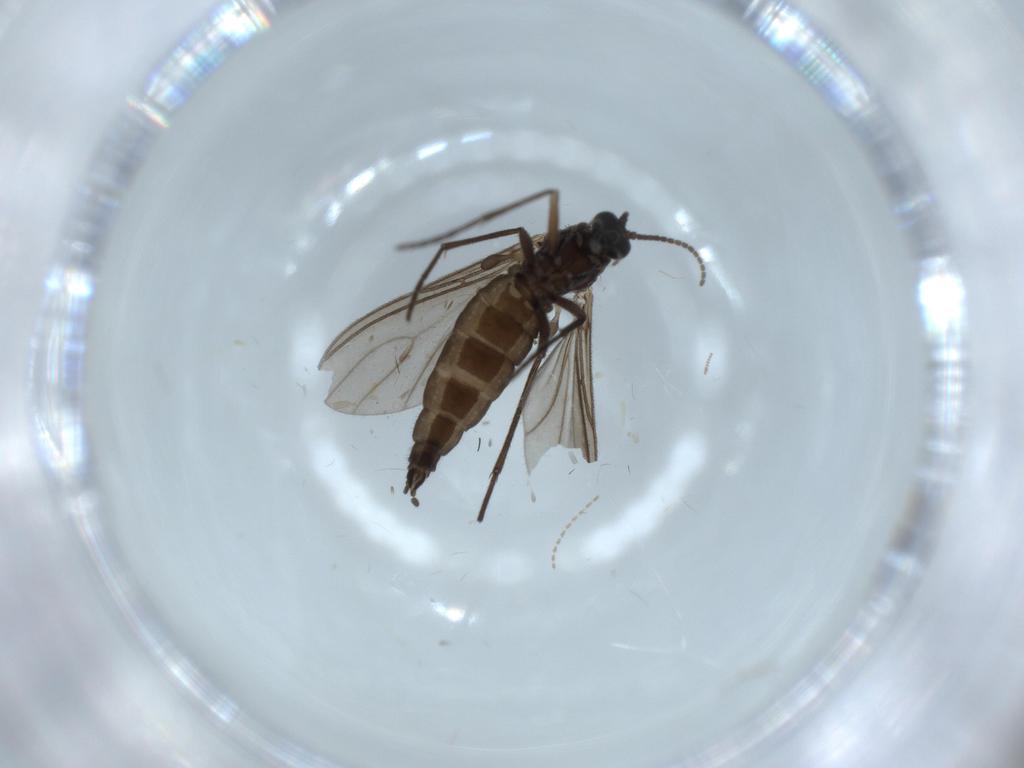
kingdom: Animalia
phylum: Arthropoda
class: Insecta
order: Diptera
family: Sciaridae
